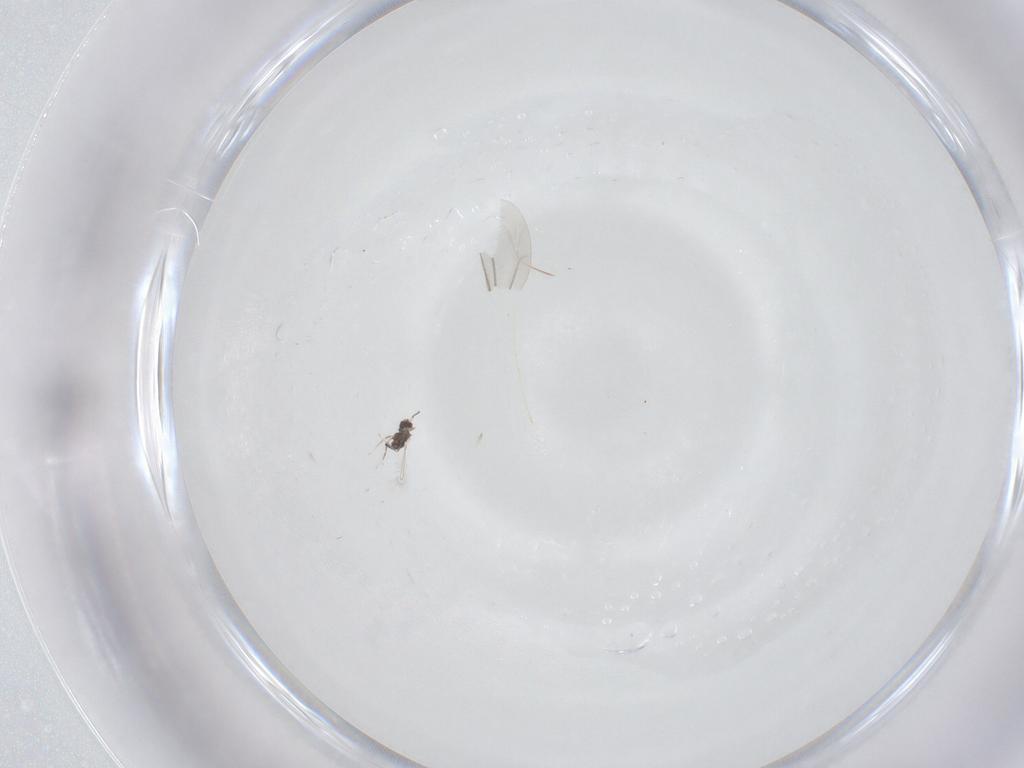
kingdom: Animalia
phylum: Arthropoda
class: Insecta
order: Diptera
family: Cecidomyiidae
